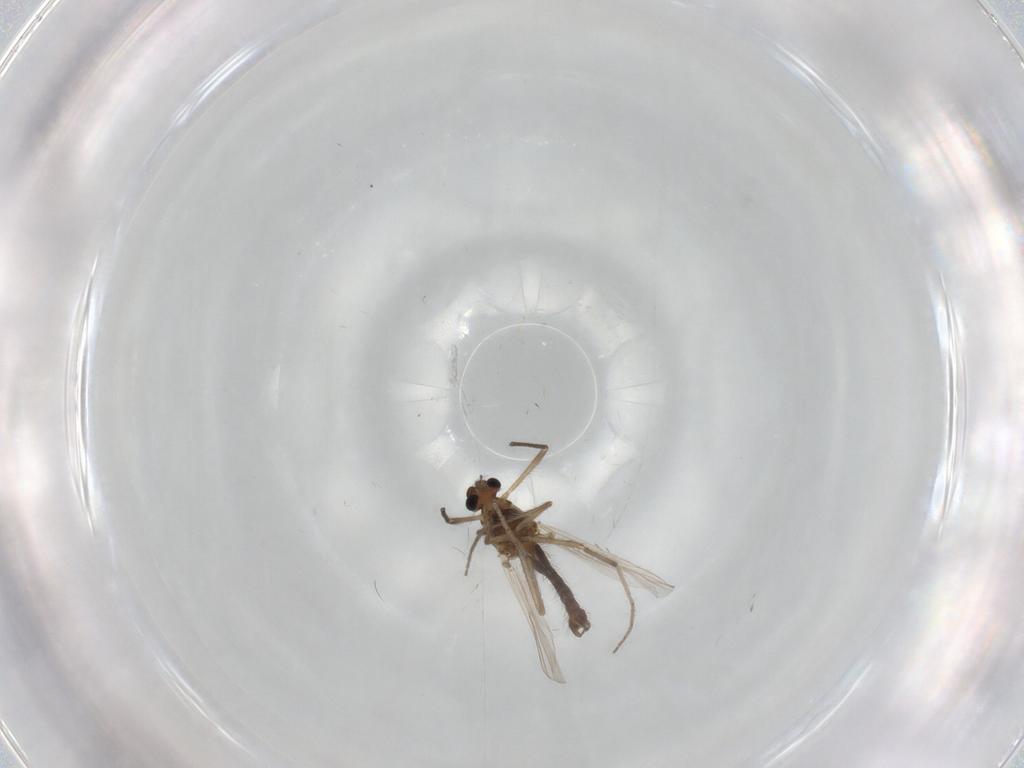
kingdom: Animalia
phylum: Arthropoda
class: Insecta
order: Diptera
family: Chironomidae
